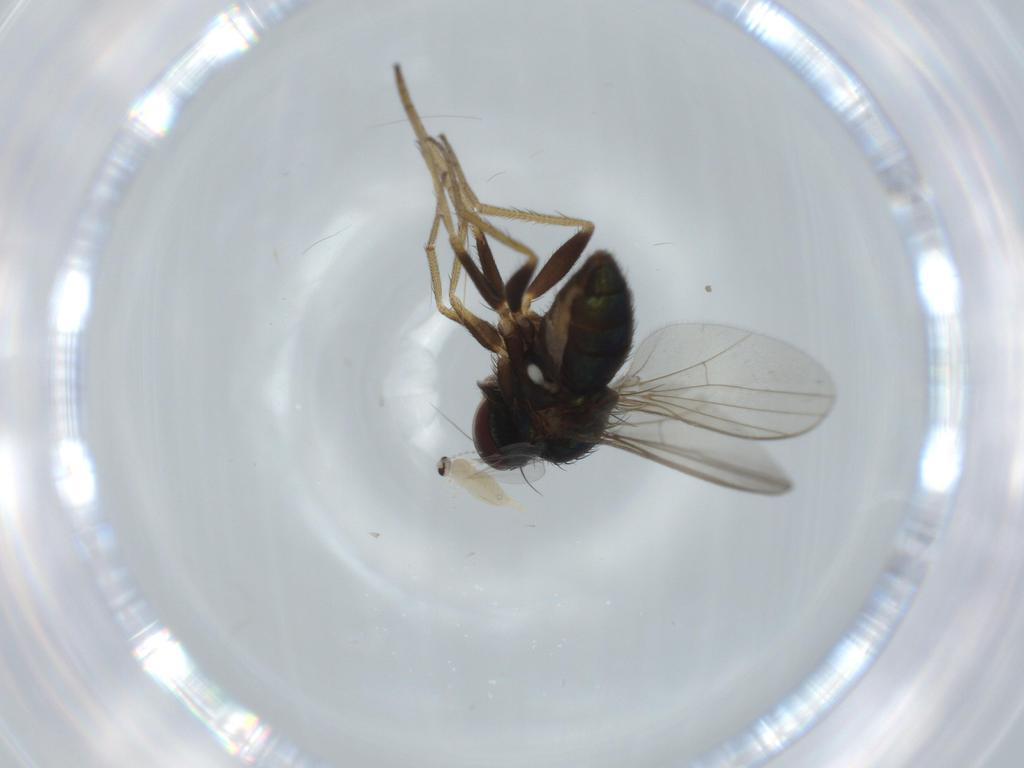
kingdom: Animalia
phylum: Arthropoda
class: Insecta
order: Diptera
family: Cecidomyiidae
